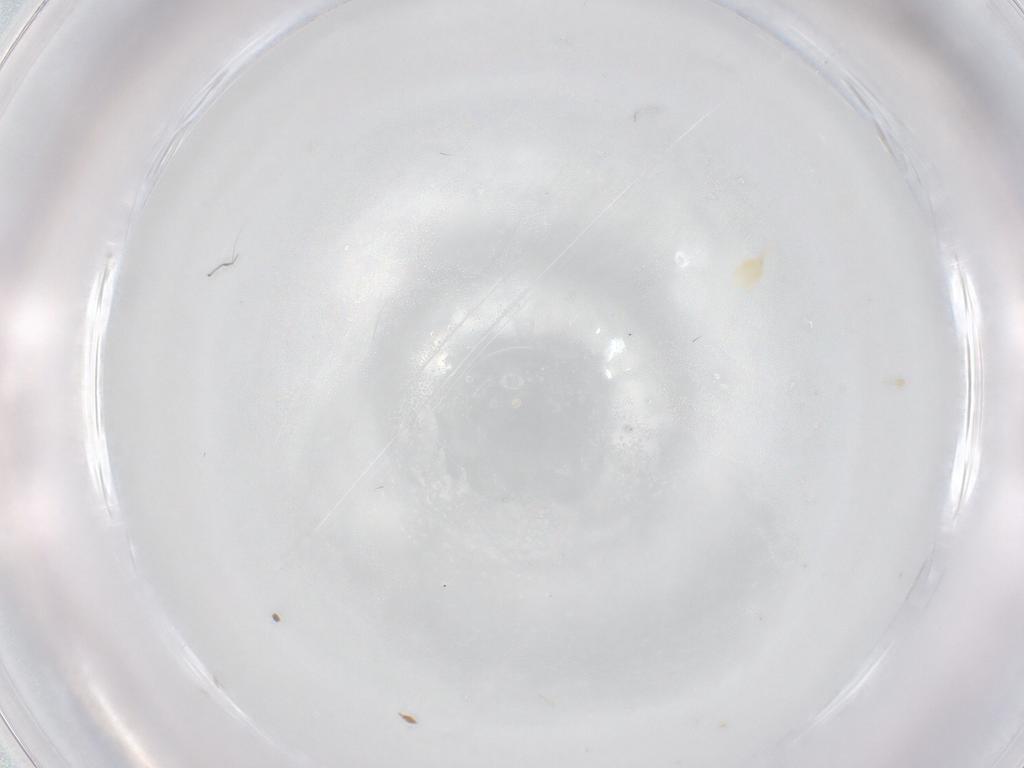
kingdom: Animalia
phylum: Arthropoda
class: Arachnida
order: Trombidiformes
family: Eupodidae
